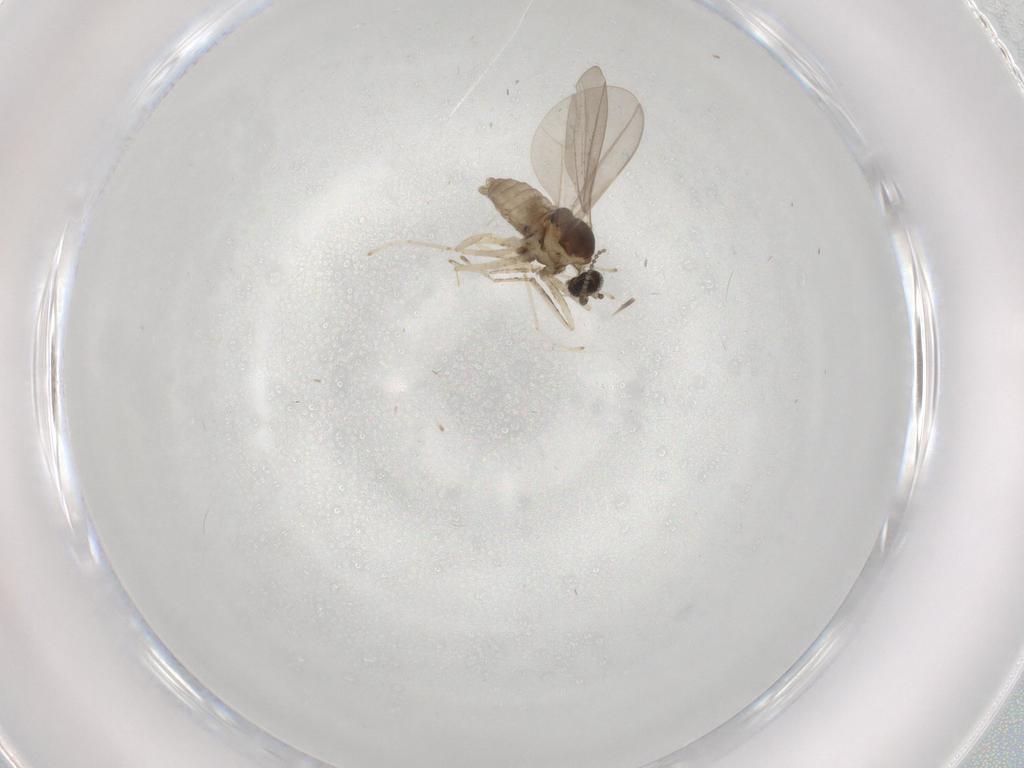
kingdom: Animalia
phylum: Arthropoda
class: Insecta
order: Diptera
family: Cecidomyiidae
